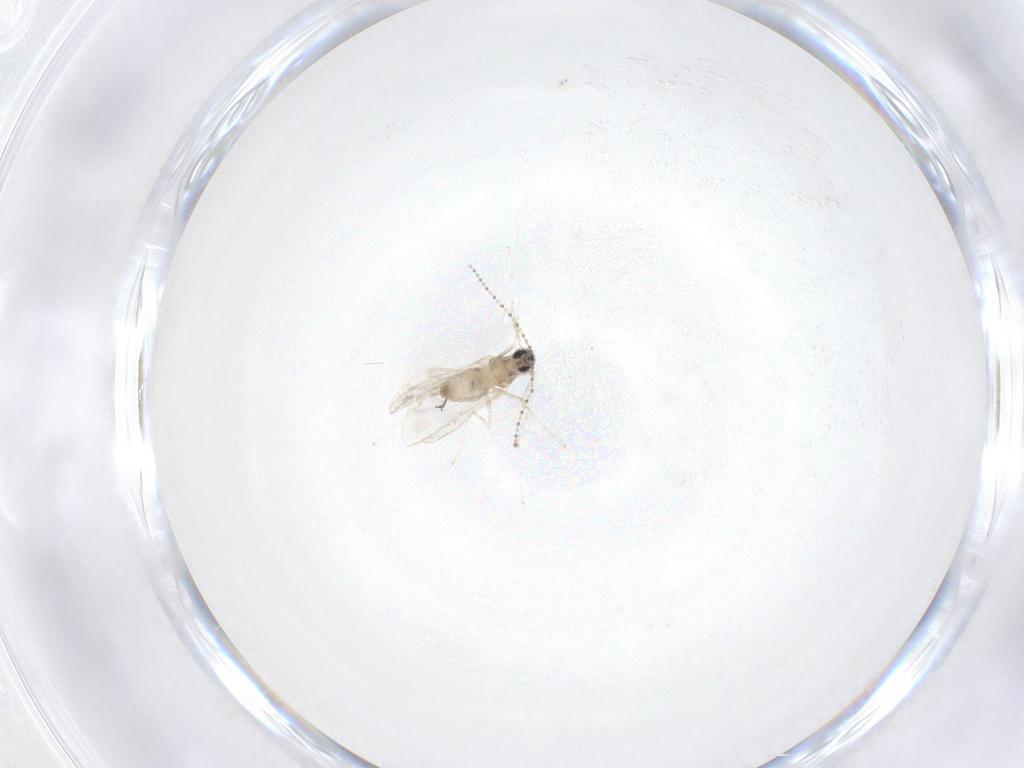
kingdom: Animalia
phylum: Arthropoda
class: Insecta
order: Diptera
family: Cecidomyiidae
